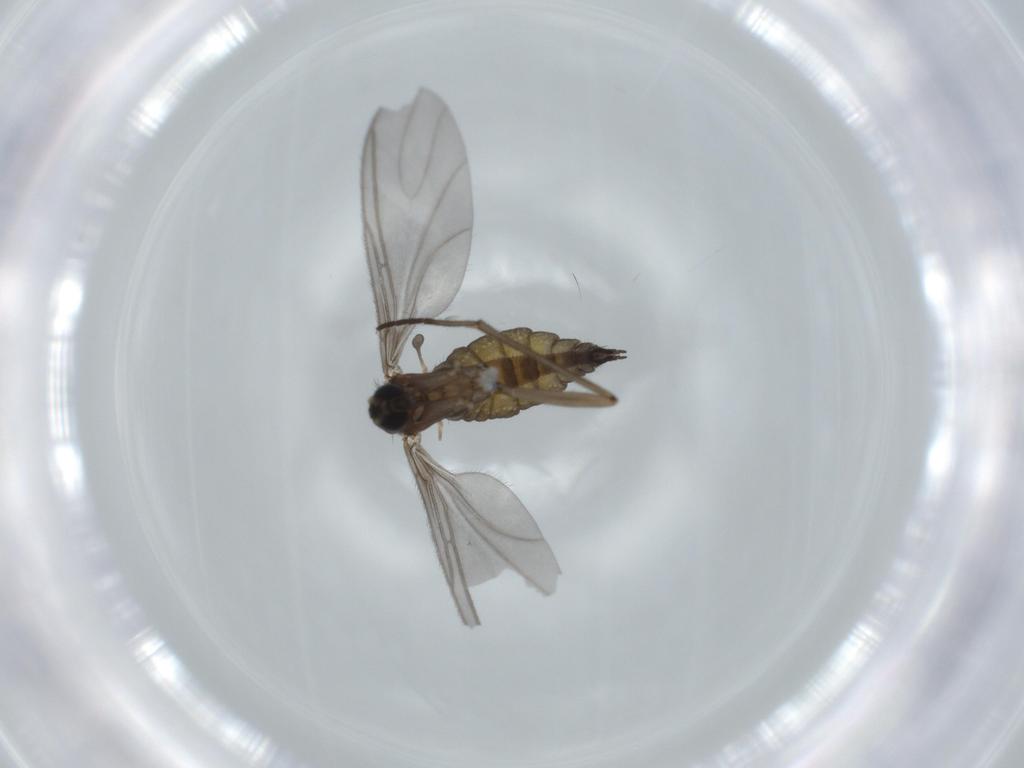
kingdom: Animalia
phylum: Arthropoda
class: Insecta
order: Diptera
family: Sciaridae
